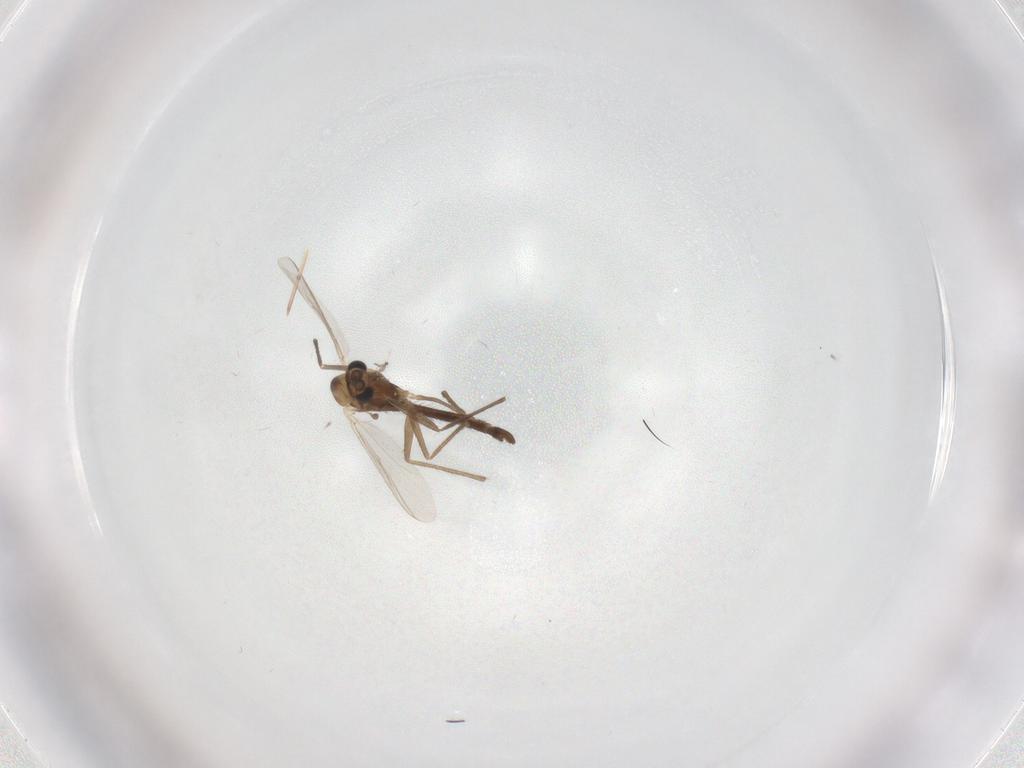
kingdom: Animalia
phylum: Arthropoda
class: Insecta
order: Diptera
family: Chironomidae
